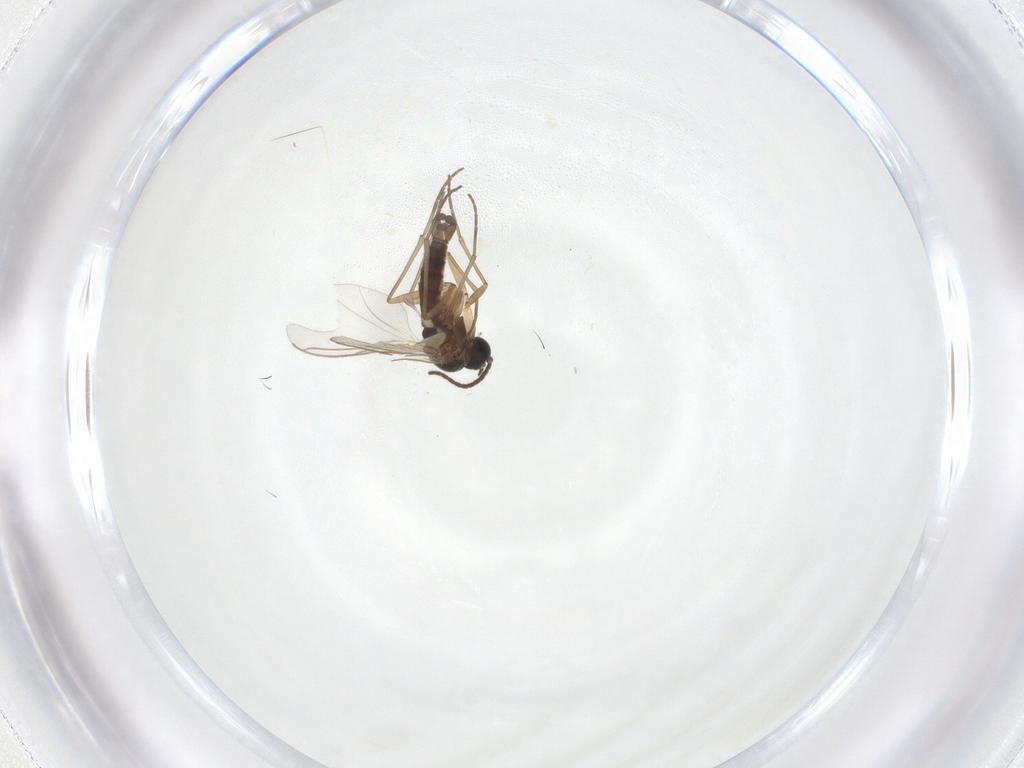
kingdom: Animalia
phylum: Arthropoda
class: Insecta
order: Diptera
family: Sciaridae
